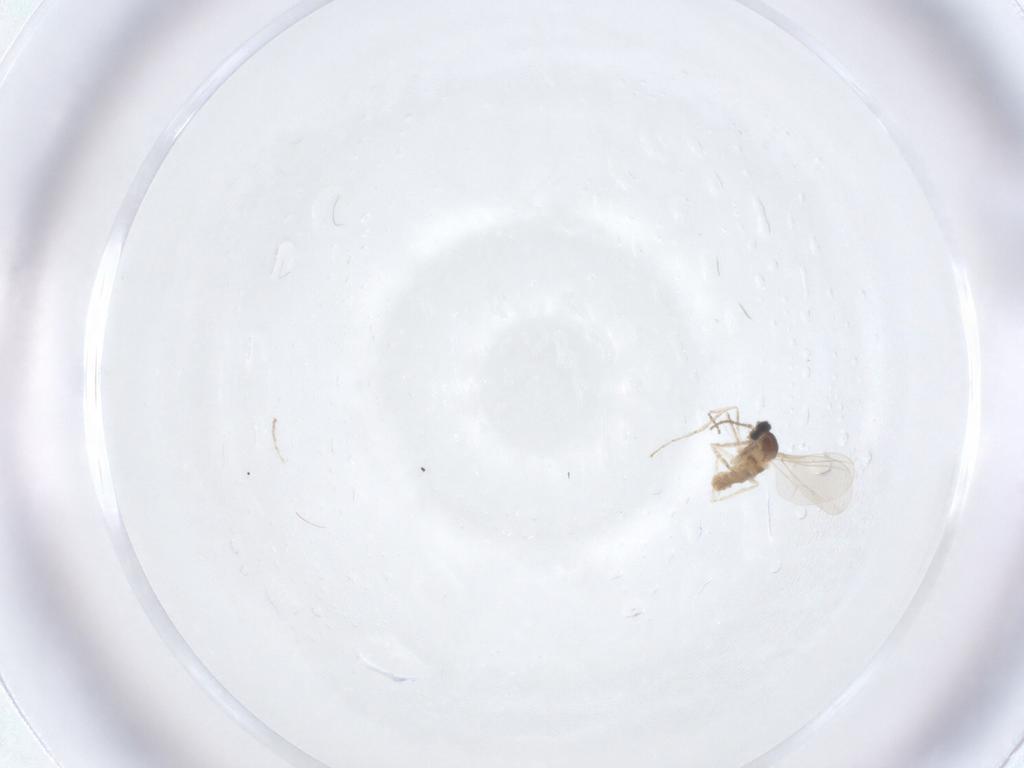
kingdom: Animalia
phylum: Arthropoda
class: Insecta
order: Diptera
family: Cecidomyiidae
